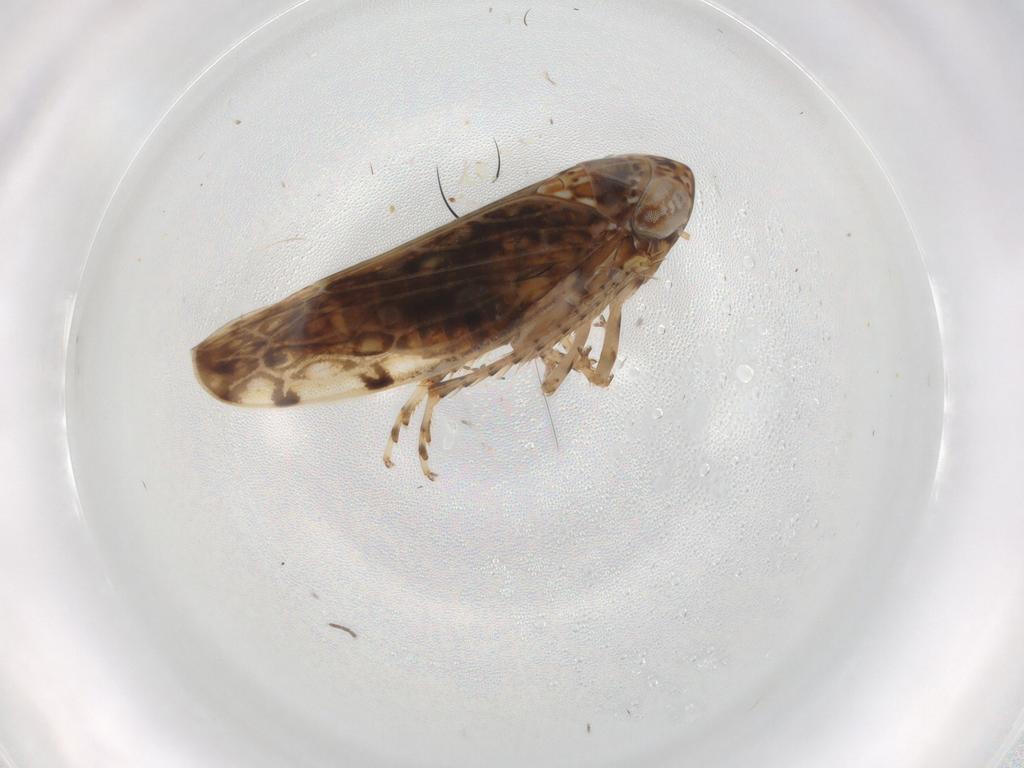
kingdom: Animalia
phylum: Arthropoda
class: Insecta
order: Hemiptera
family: Cicadellidae
